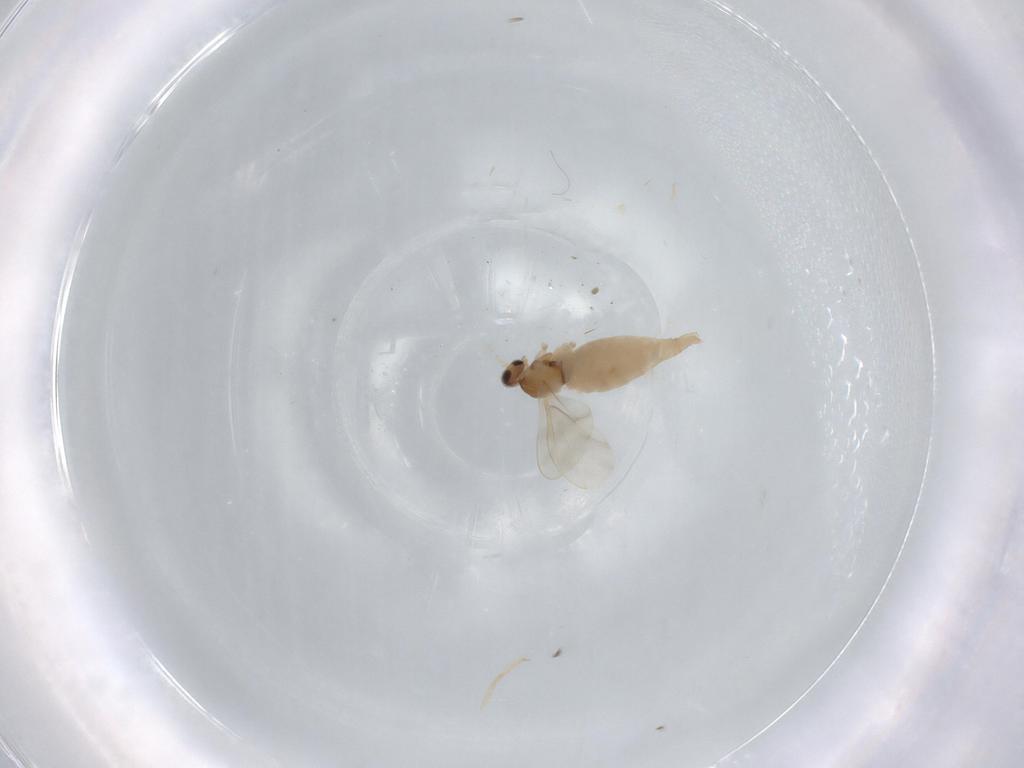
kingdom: Animalia
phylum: Arthropoda
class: Insecta
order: Diptera
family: Cecidomyiidae
